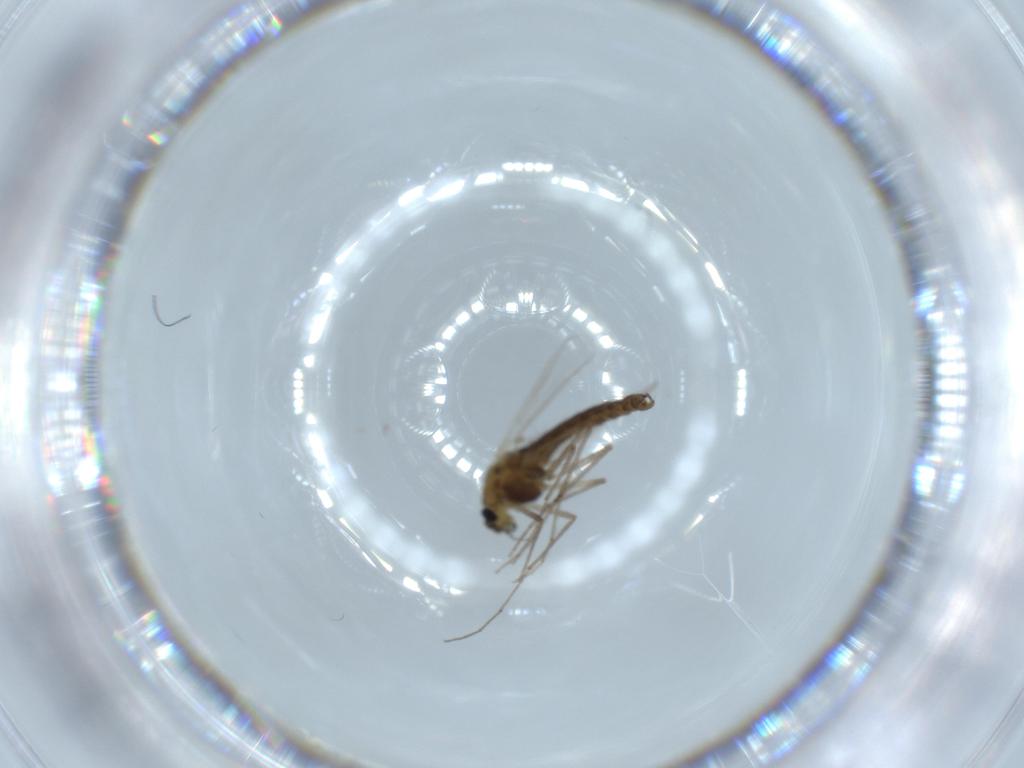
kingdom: Animalia
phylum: Arthropoda
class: Insecta
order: Diptera
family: Chironomidae
